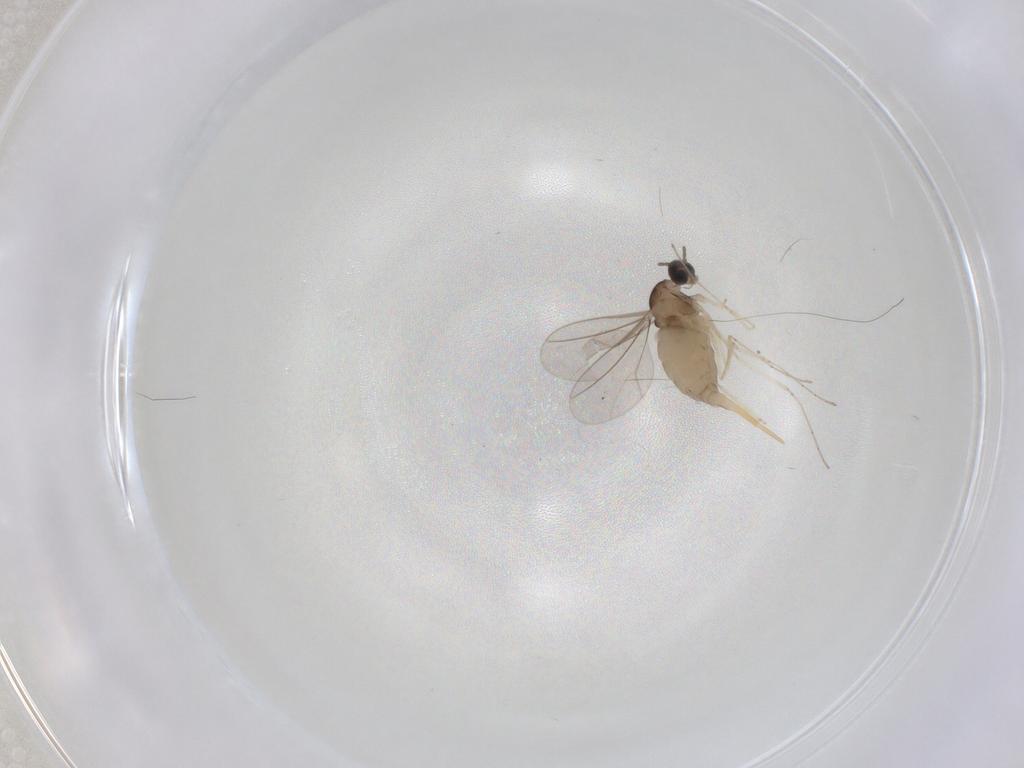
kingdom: Animalia
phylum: Arthropoda
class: Insecta
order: Diptera
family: Cecidomyiidae
